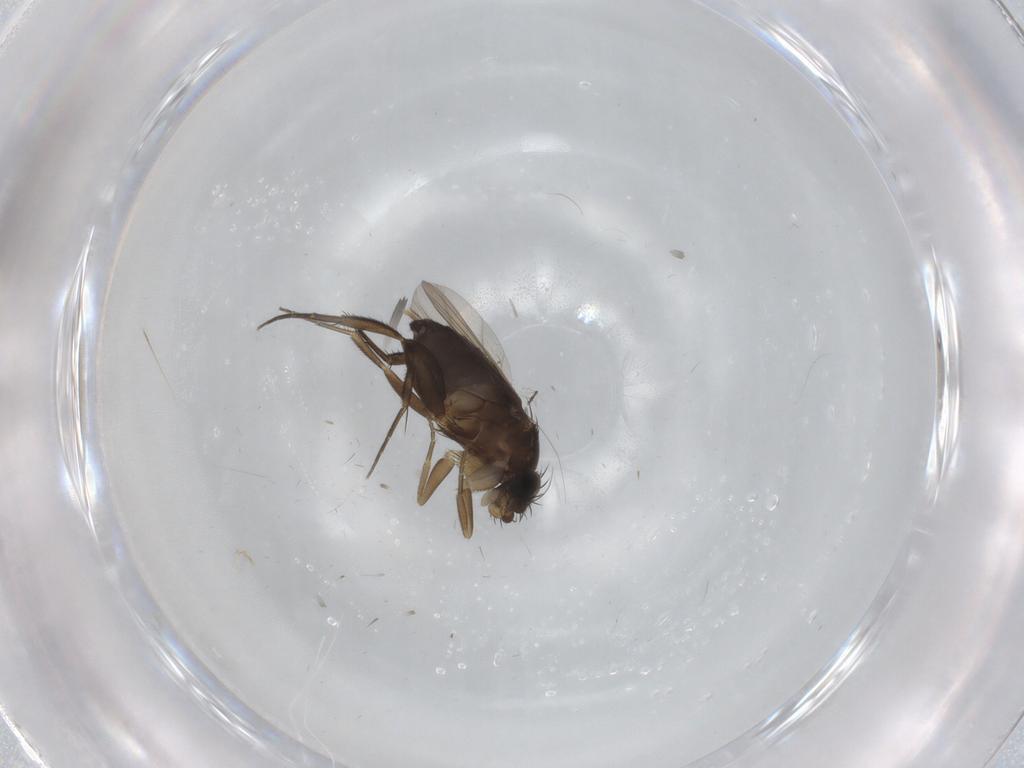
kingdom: Animalia
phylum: Arthropoda
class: Insecta
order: Diptera
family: Phoridae
